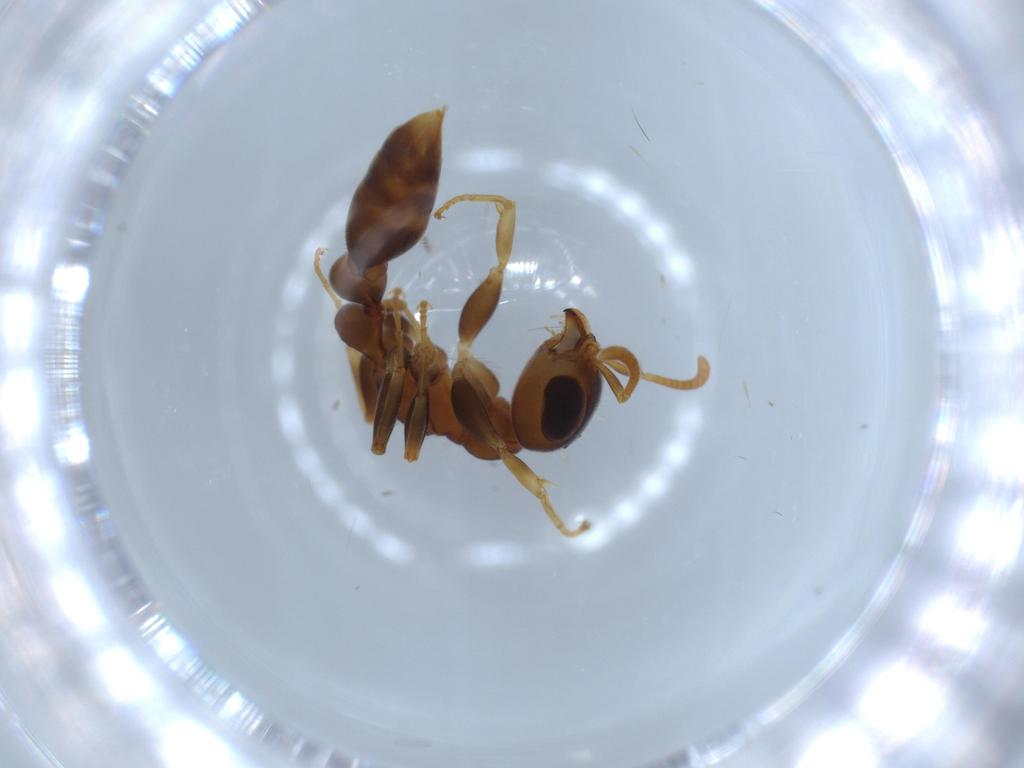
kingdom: Animalia
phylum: Arthropoda
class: Insecta
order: Hymenoptera
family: Formicidae
